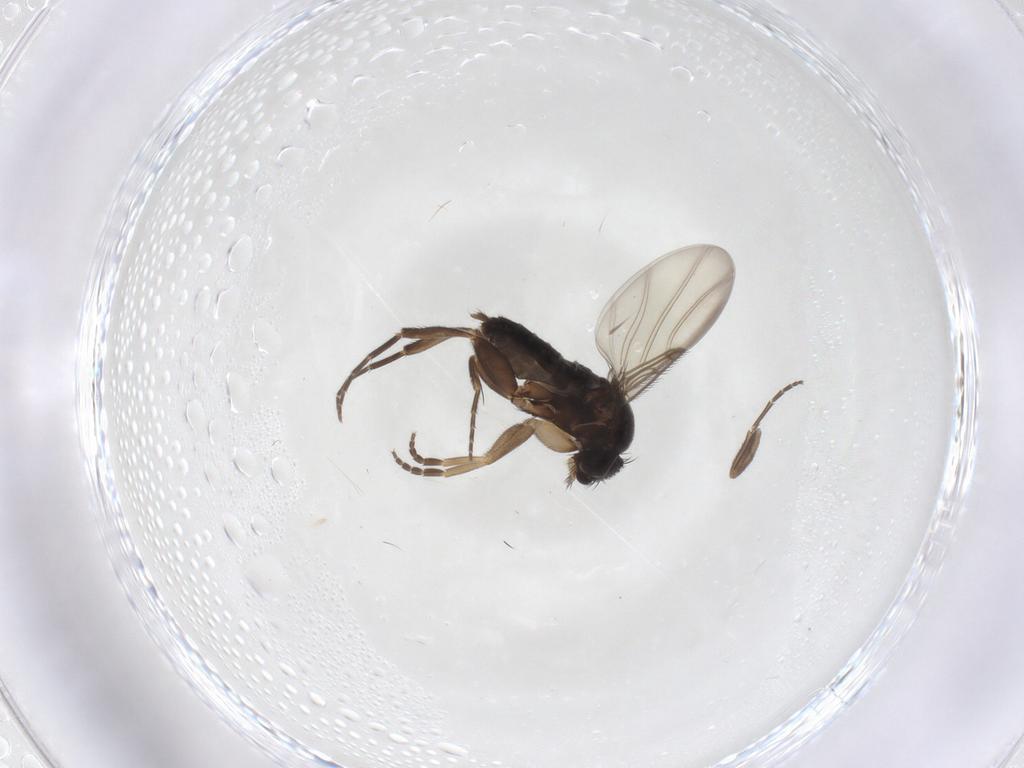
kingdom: Animalia
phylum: Arthropoda
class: Insecta
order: Diptera
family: Phoridae
